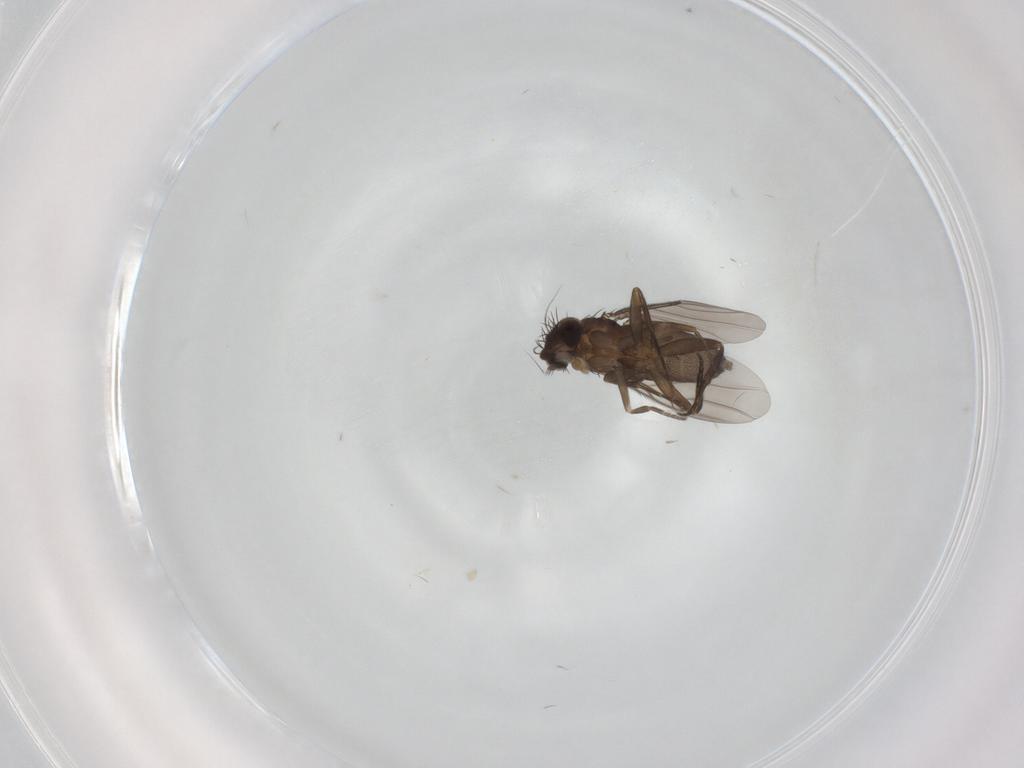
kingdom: Animalia
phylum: Arthropoda
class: Insecta
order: Diptera
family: Phoridae
